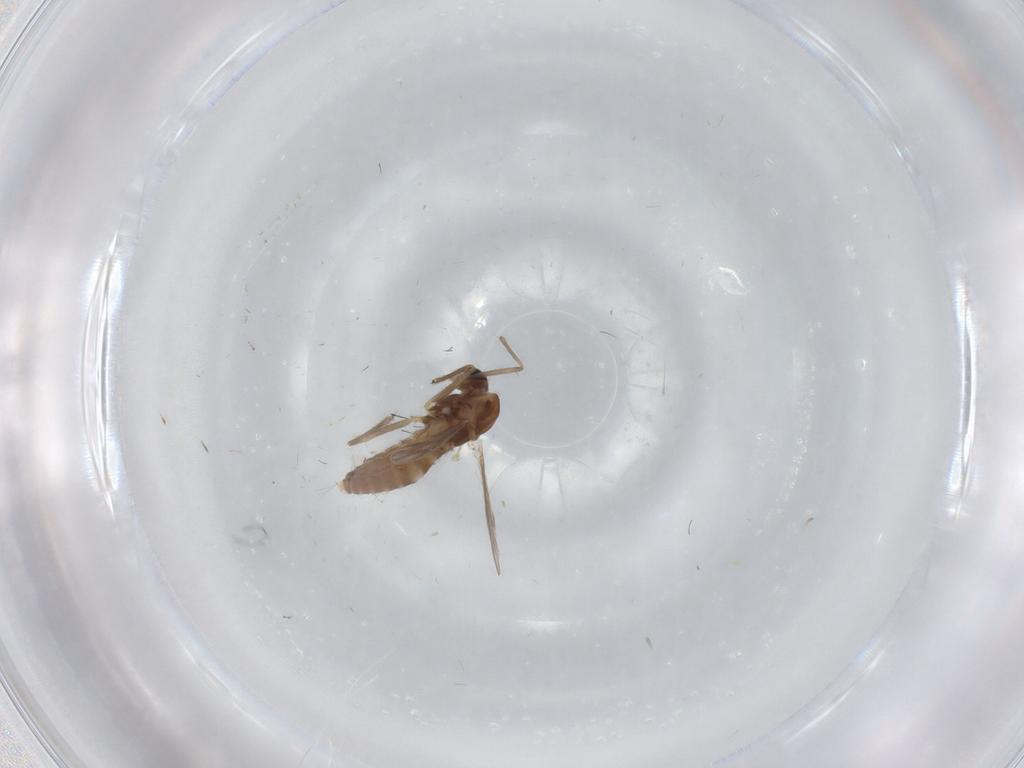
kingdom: Animalia
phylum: Arthropoda
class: Insecta
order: Diptera
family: Chironomidae
